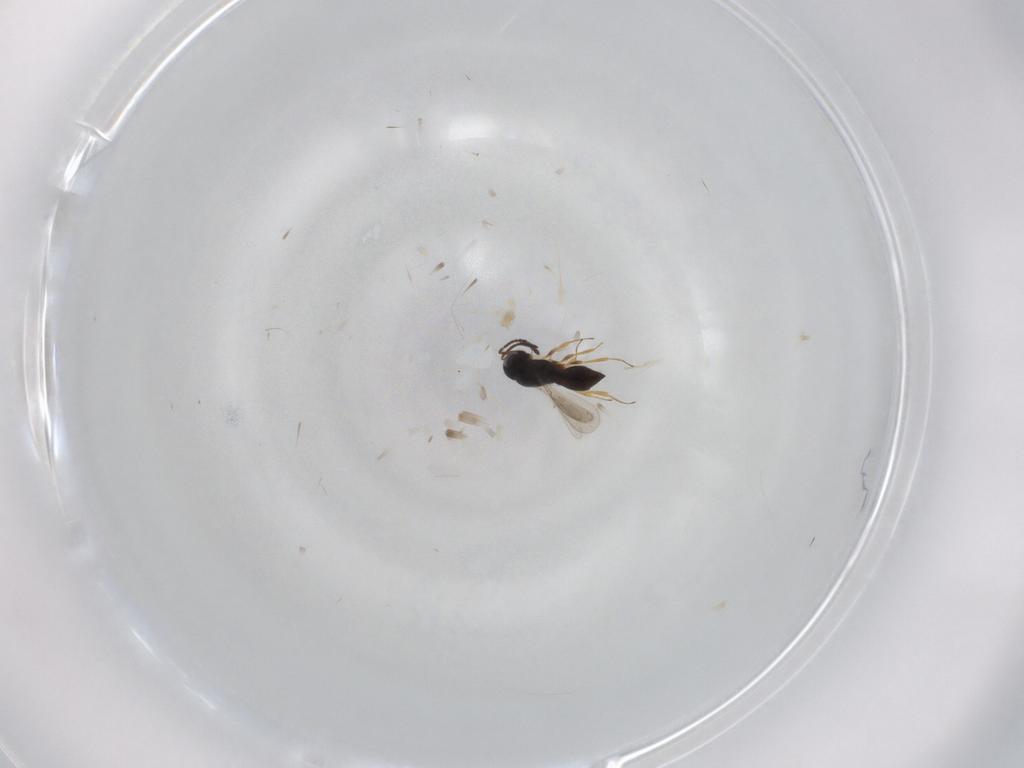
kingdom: Animalia
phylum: Arthropoda
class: Insecta
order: Hymenoptera
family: Scelionidae
